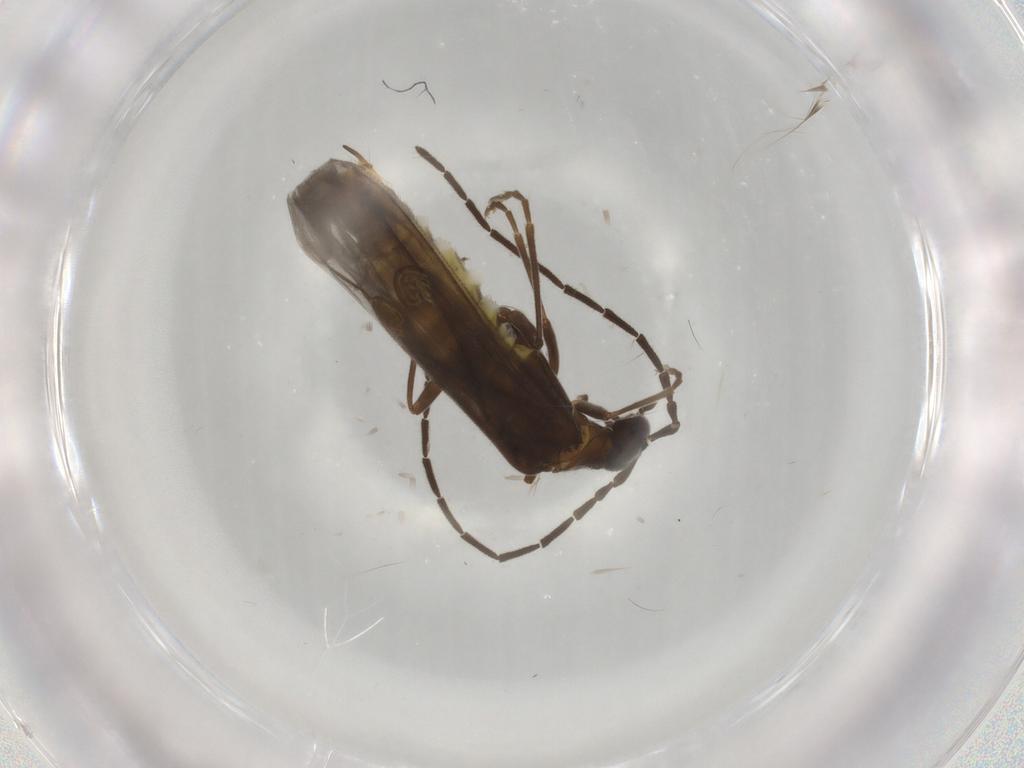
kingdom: Animalia
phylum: Arthropoda
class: Insecta
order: Coleoptera
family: Cantharidae
